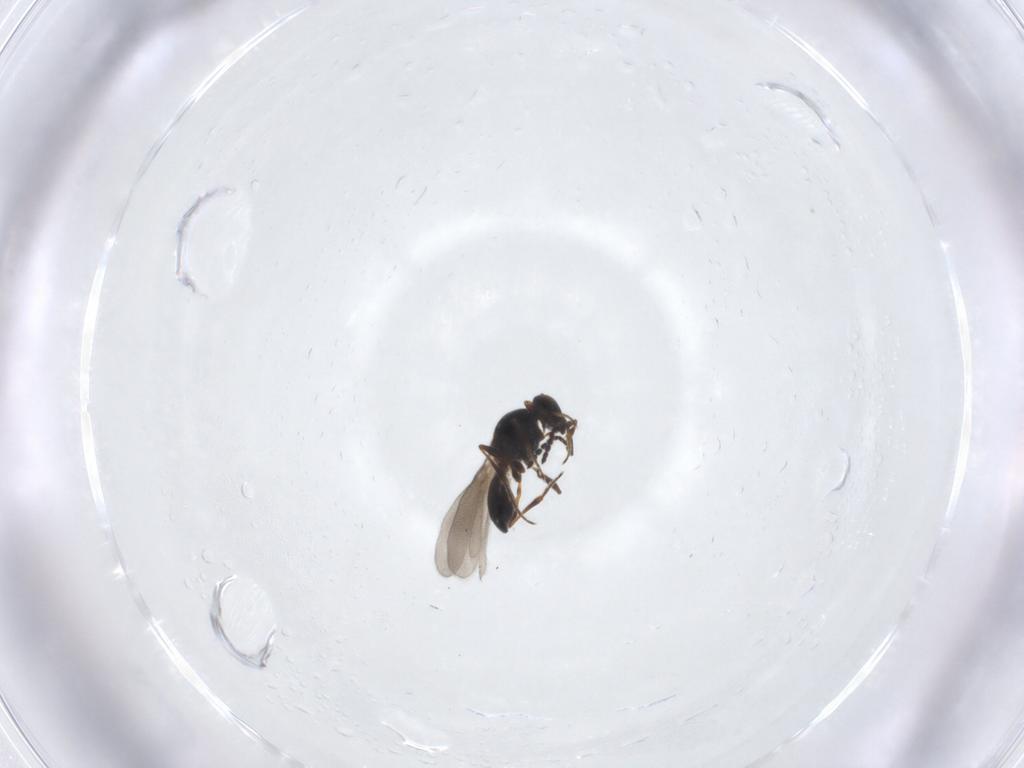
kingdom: Animalia
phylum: Arthropoda
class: Insecta
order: Hymenoptera
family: Platygastridae
